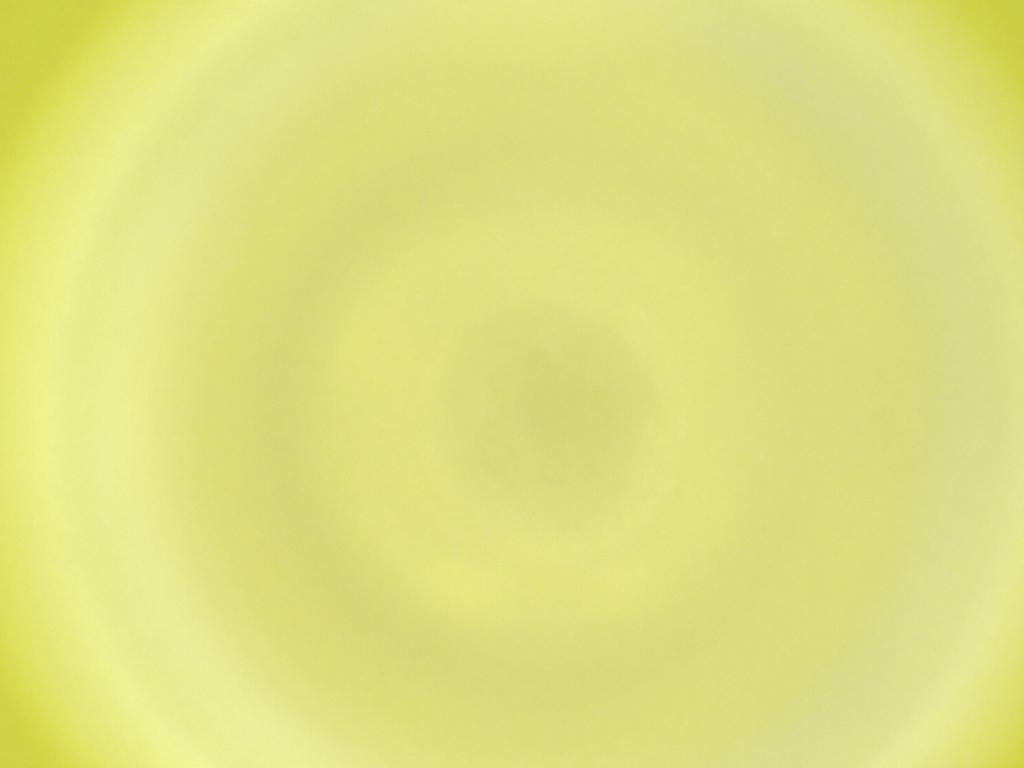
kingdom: Animalia
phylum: Arthropoda
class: Insecta
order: Diptera
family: Cecidomyiidae
